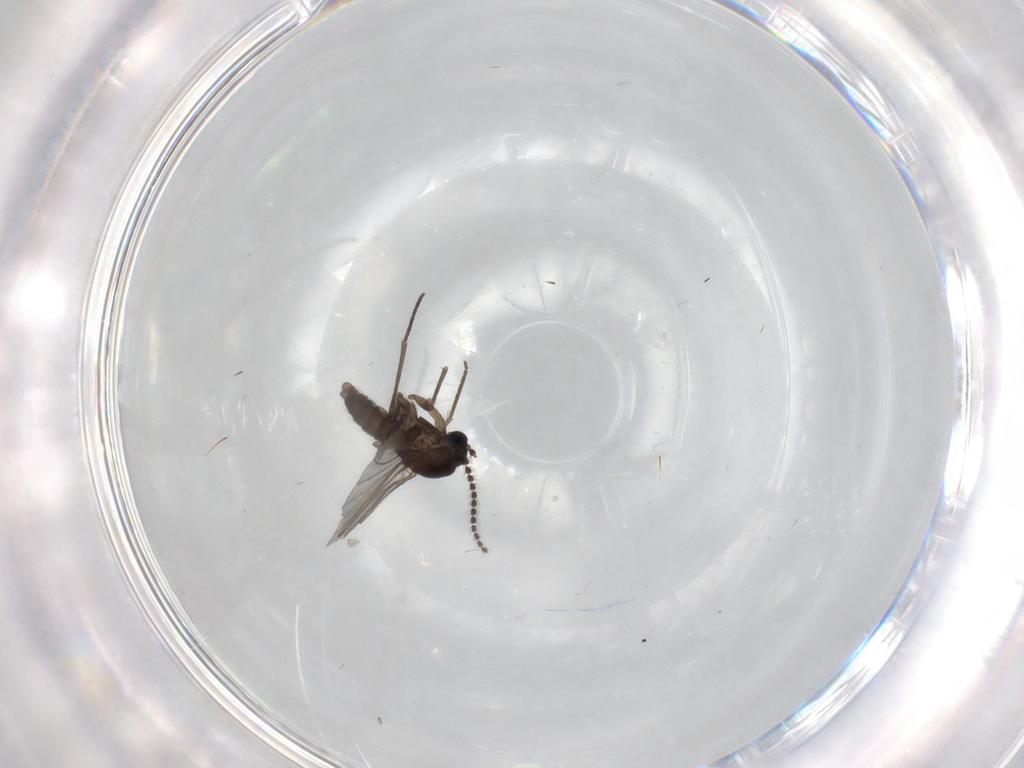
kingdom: Animalia
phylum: Arthropoda
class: Insecta
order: Diptera
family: Sciaridae
